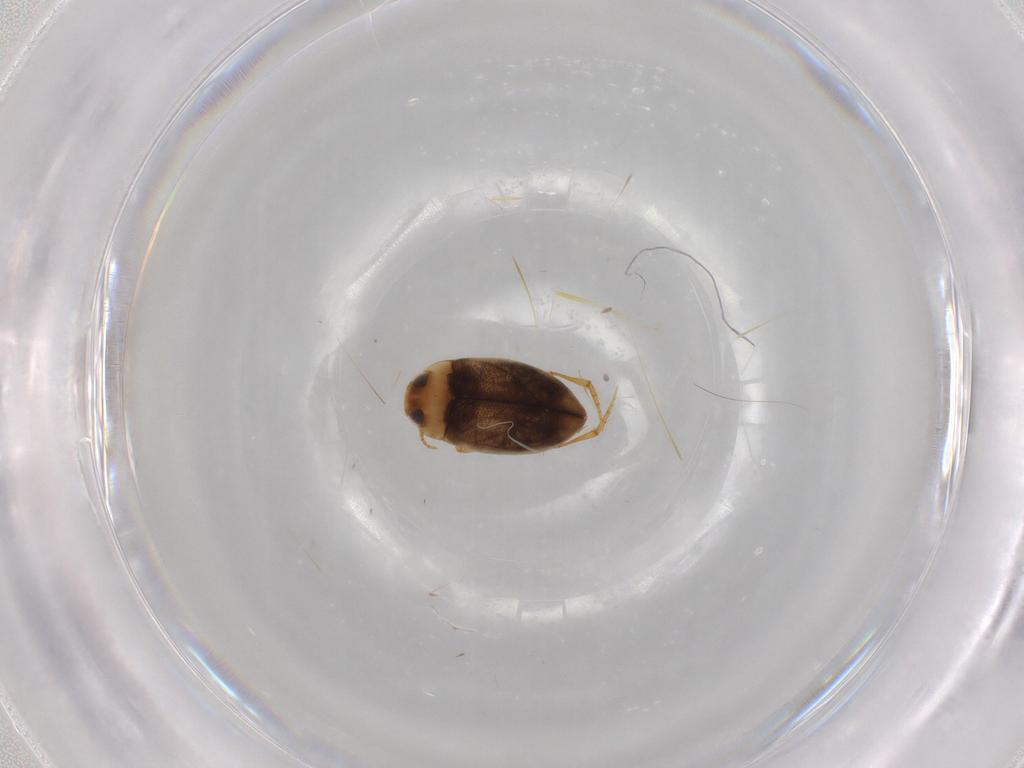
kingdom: Animalia
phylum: Arthropoda
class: Insecta
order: Coleoptera
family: Dytiscidae
